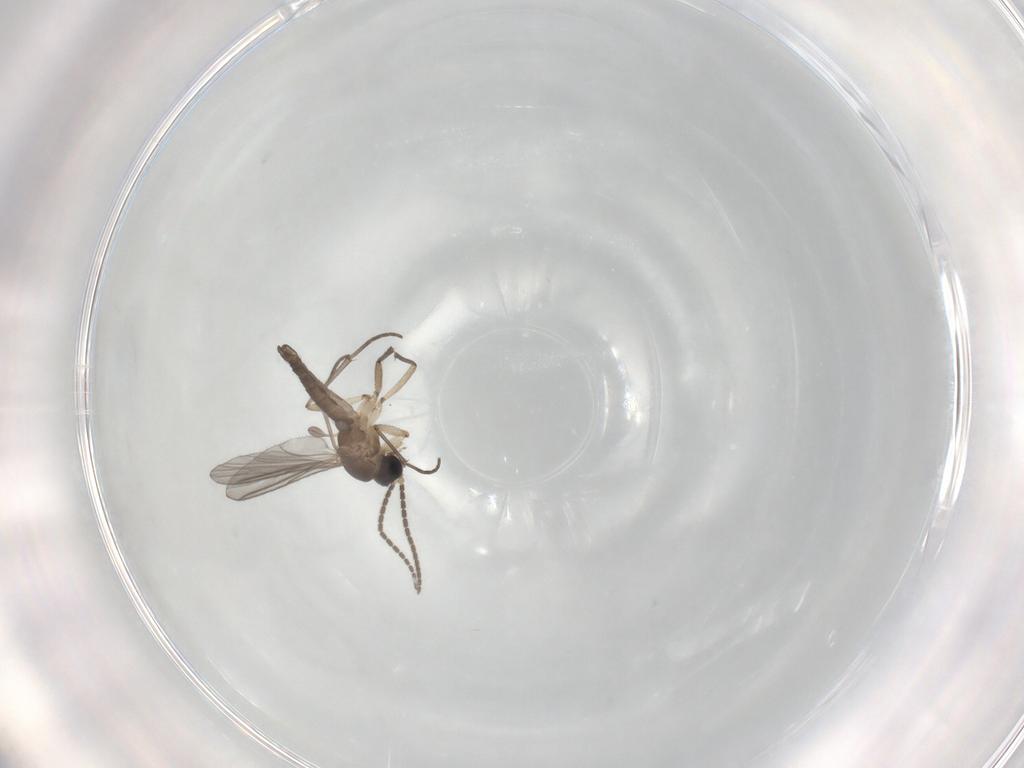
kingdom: Animalia
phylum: Arthropoda
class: Insecta
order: Diptera
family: Sciaridae
